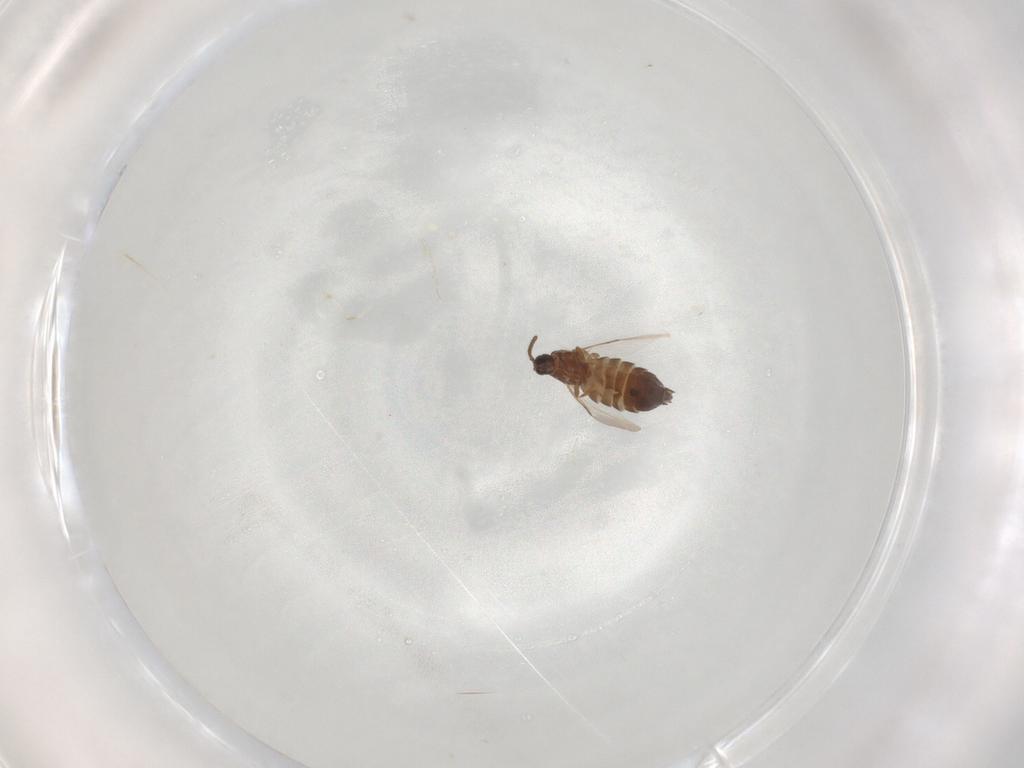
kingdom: Animalia
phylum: Arthropoda
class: Insecta
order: Diptera
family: Scatopsidae
